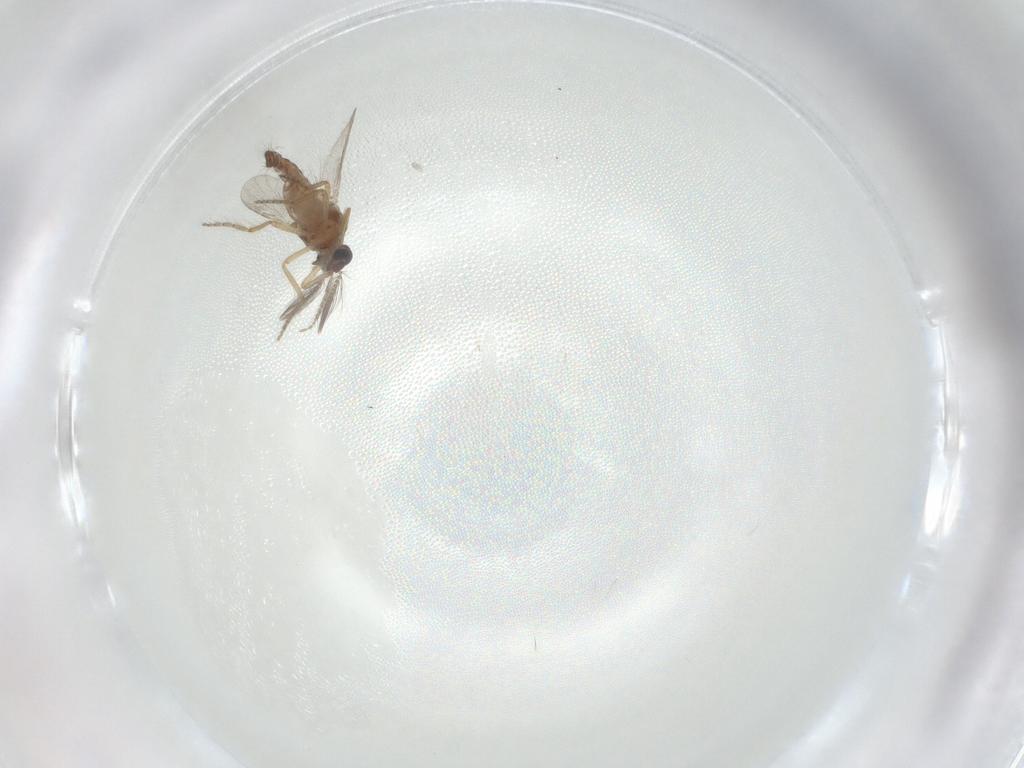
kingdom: Animalia
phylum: Arthropoda
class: Insecta
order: Diptera
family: Ceratopogonidae
